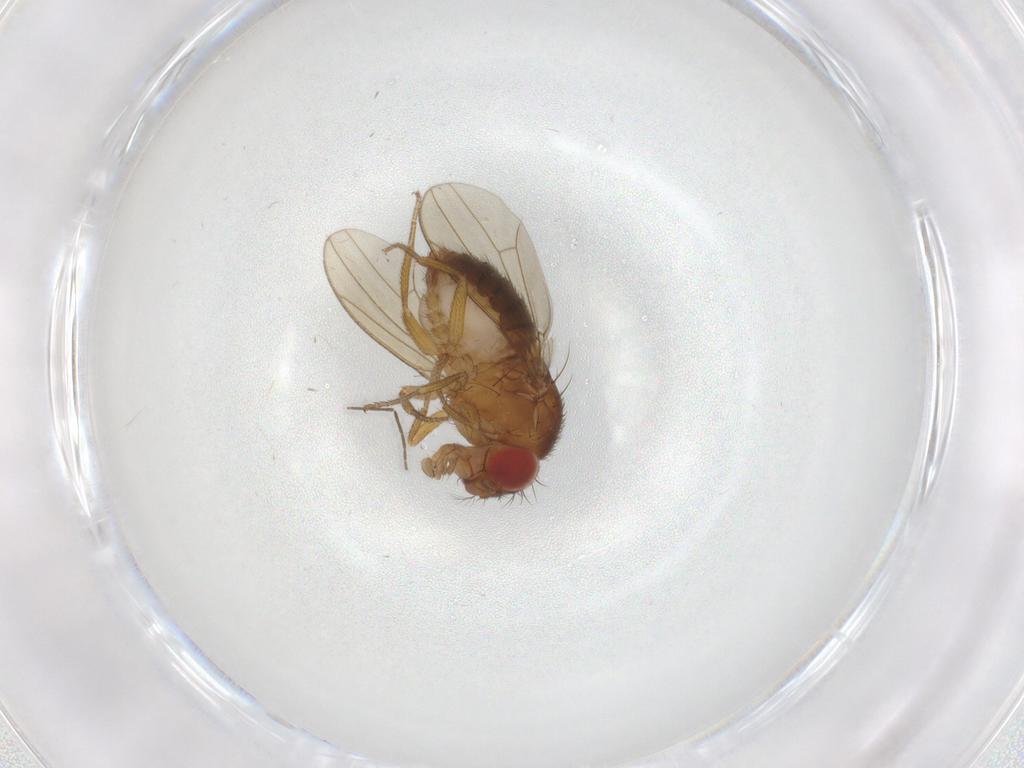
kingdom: Animalia
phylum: Arthropoda
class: Insecta
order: Diptera
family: Drosophilidae
